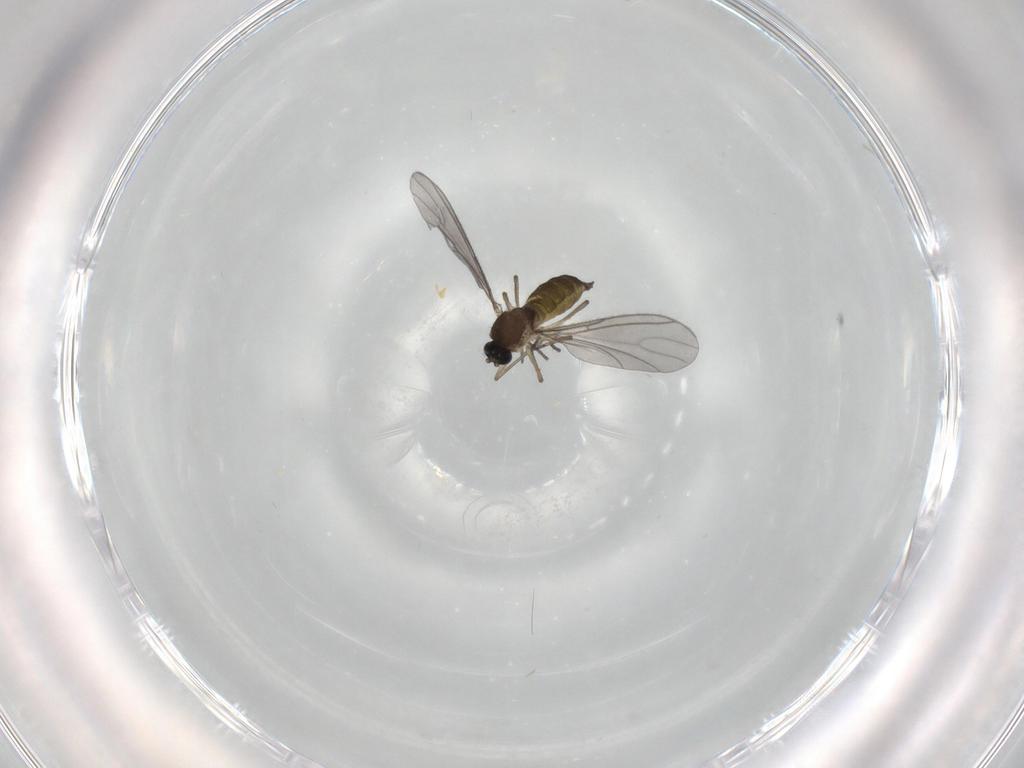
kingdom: Animalia
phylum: Arthropoda
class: Insecta
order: Diptera
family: Sciaridae
